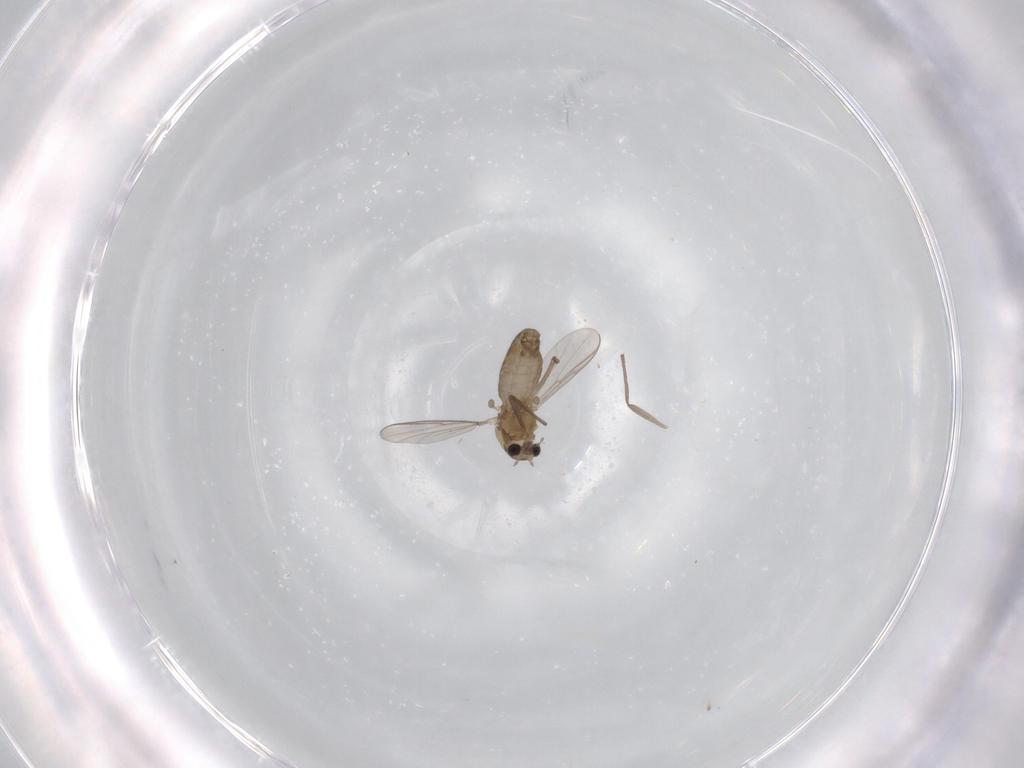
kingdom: Animalia
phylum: Arthropoda
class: Insecta
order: Diptera
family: Chironomidae
